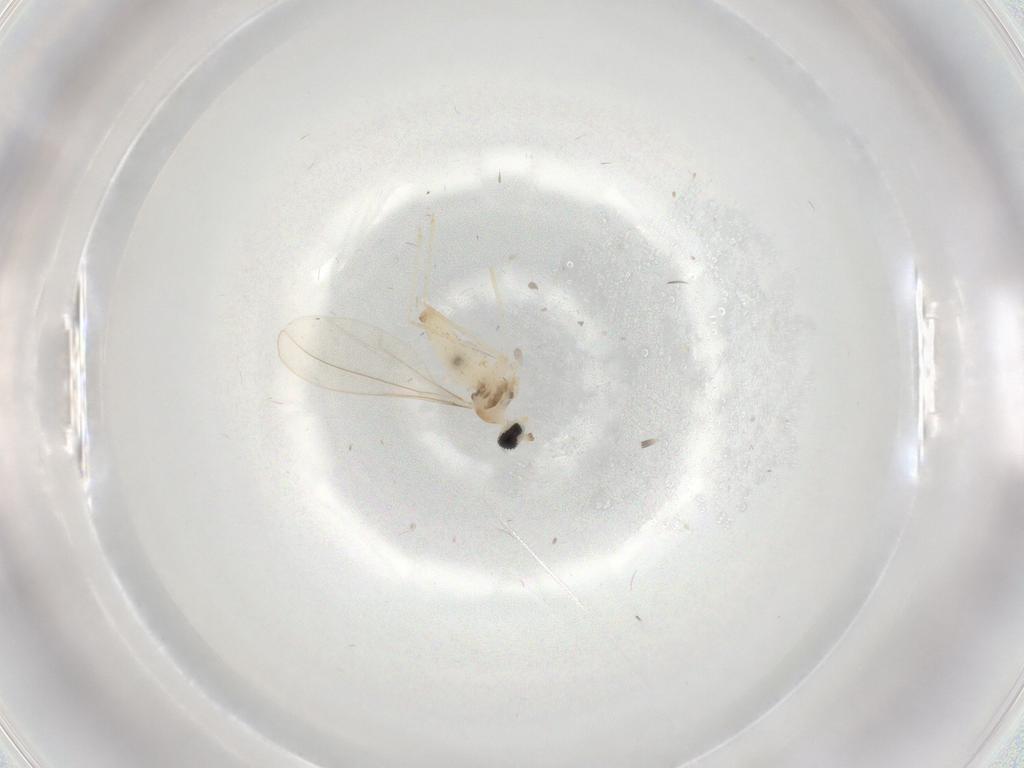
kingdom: Animalia
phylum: Arthropoda
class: Insecta
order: Diptera
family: Cecidomyiidae
